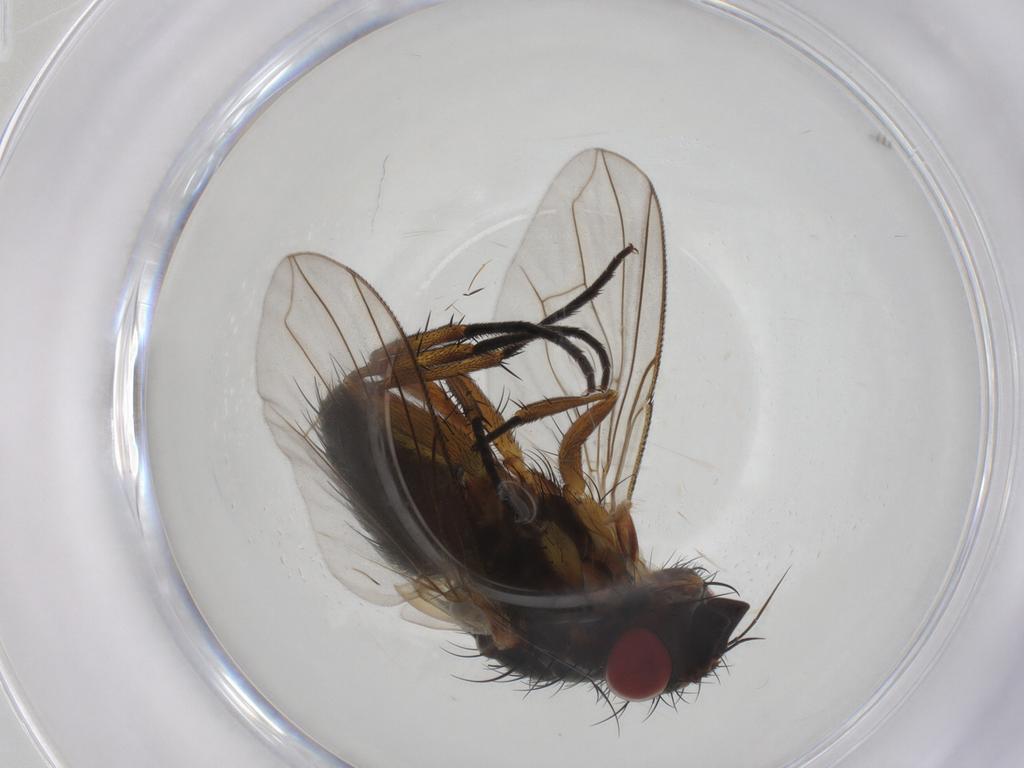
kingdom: Animalia
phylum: Arthropoda
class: Insecta
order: Diptera
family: Anthomyiidae
